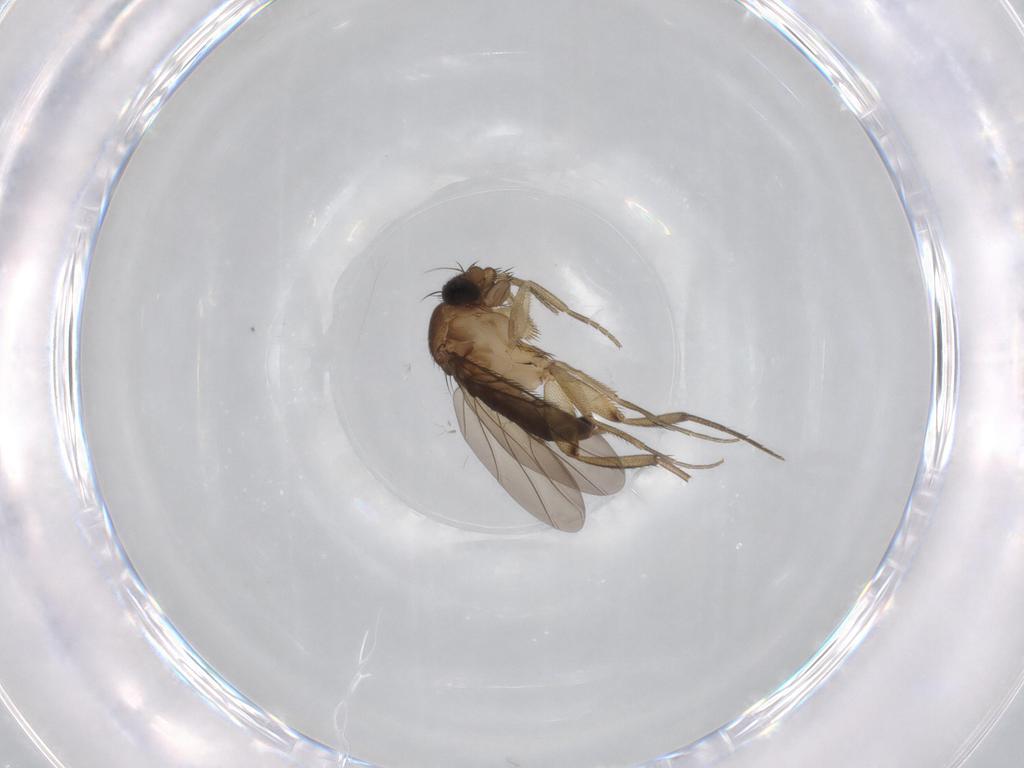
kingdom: Animalia
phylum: Arthropoda
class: Insecta
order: Diptera
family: Phoridae
